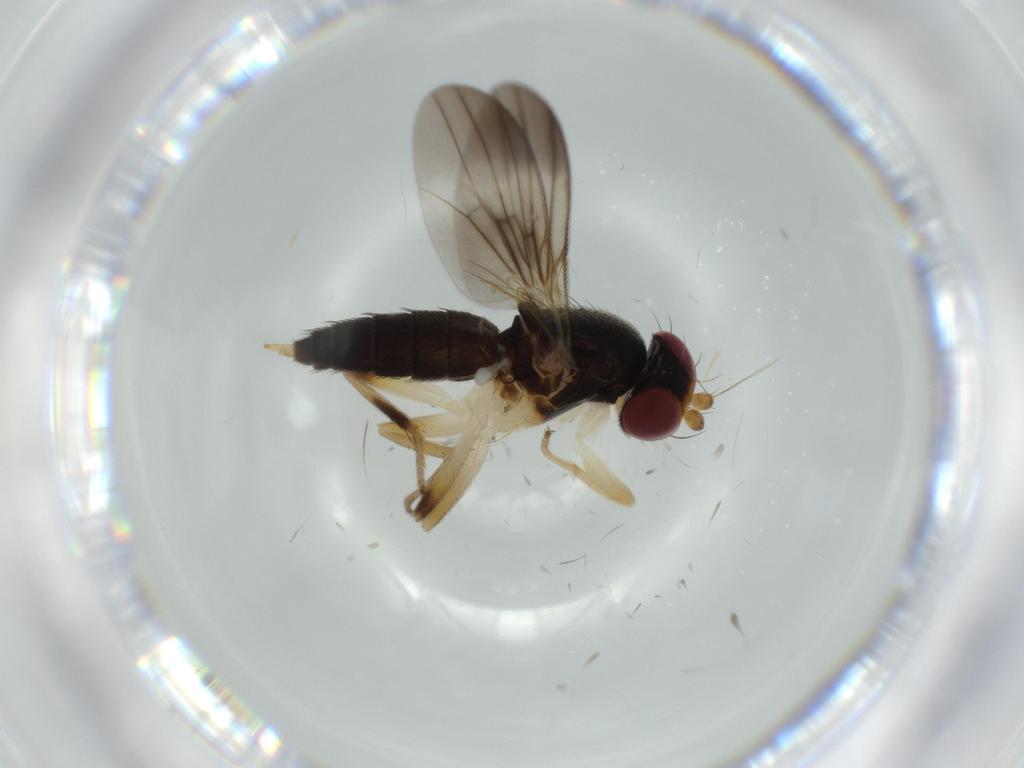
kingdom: Animalia
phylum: Arthropoda
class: Insecta
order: Diptera
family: Clusiidae
